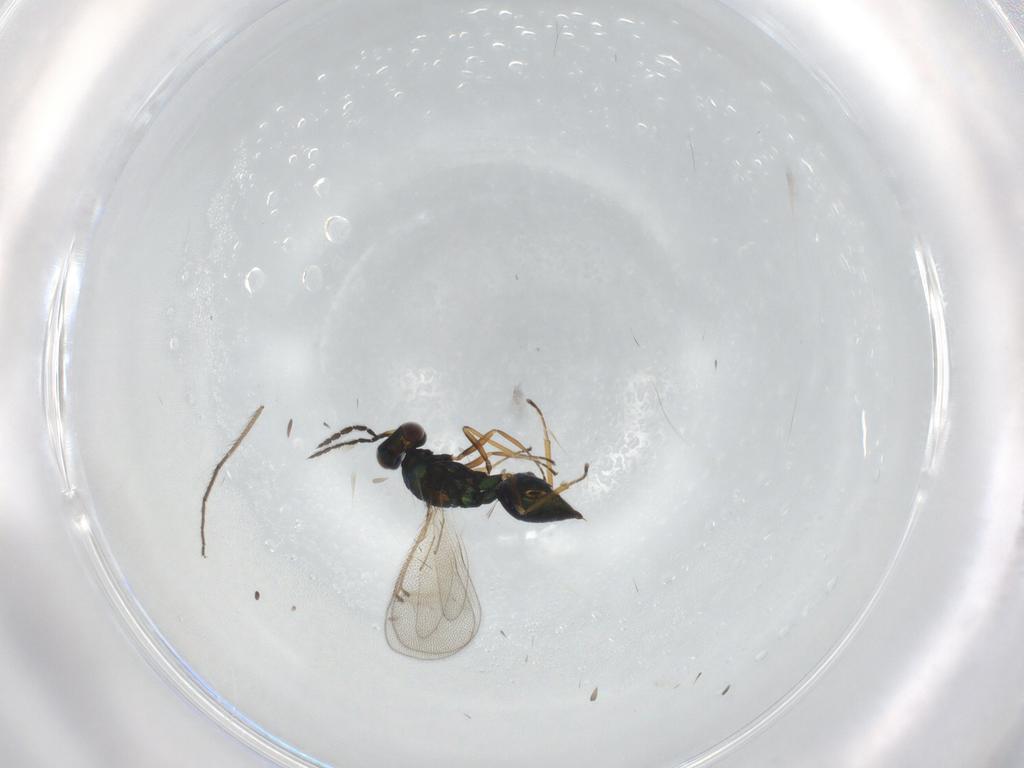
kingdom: Animalia
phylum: Arthropoda
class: Insecta
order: Hymenoptera
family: Eulophidae
